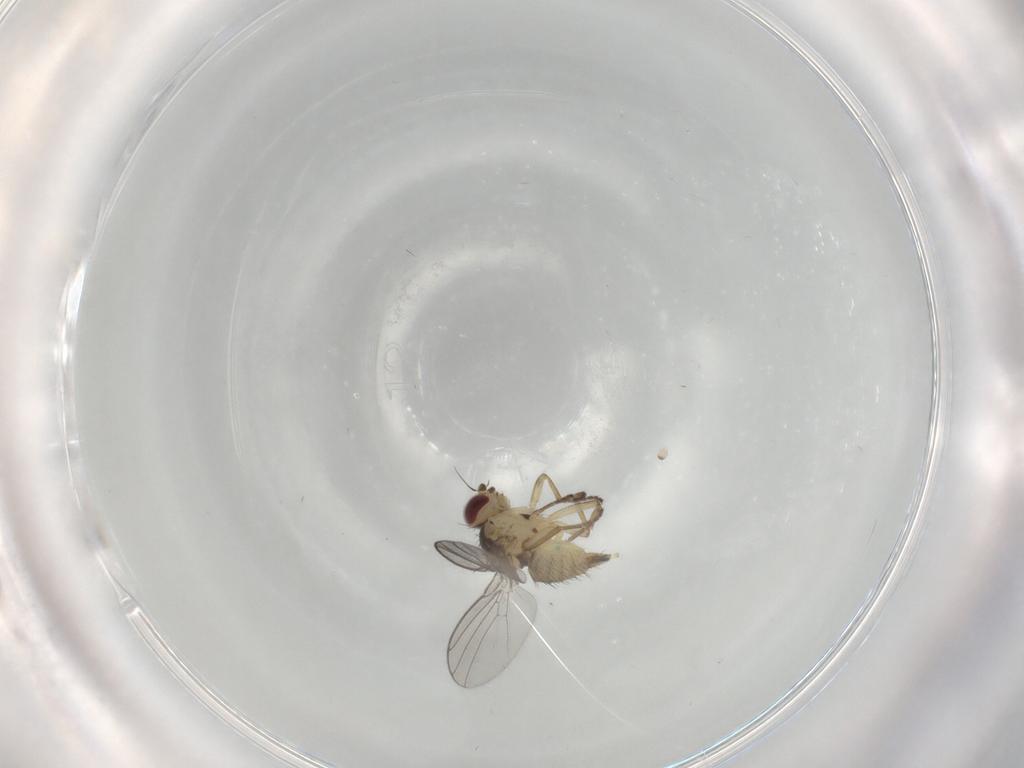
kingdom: Animalia
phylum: Arthropoda
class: Insecta
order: Diptera
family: Agromyzidae
